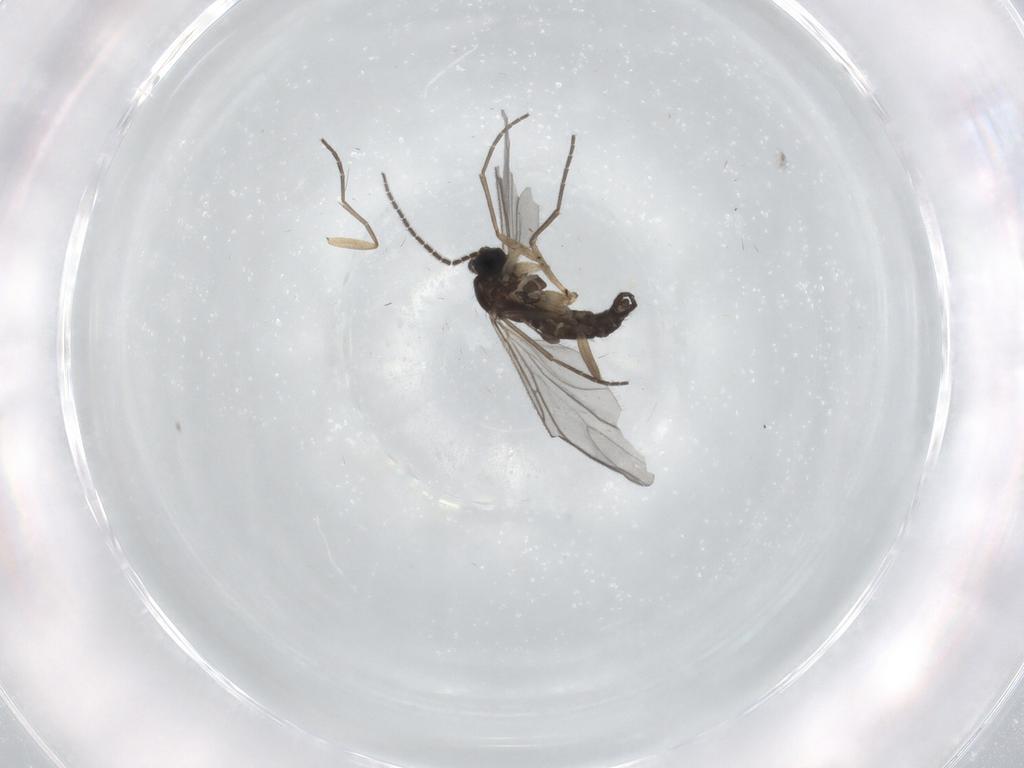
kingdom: Animalia
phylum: Arthropoda
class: Insecta
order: Diptera
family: Sciaridae
